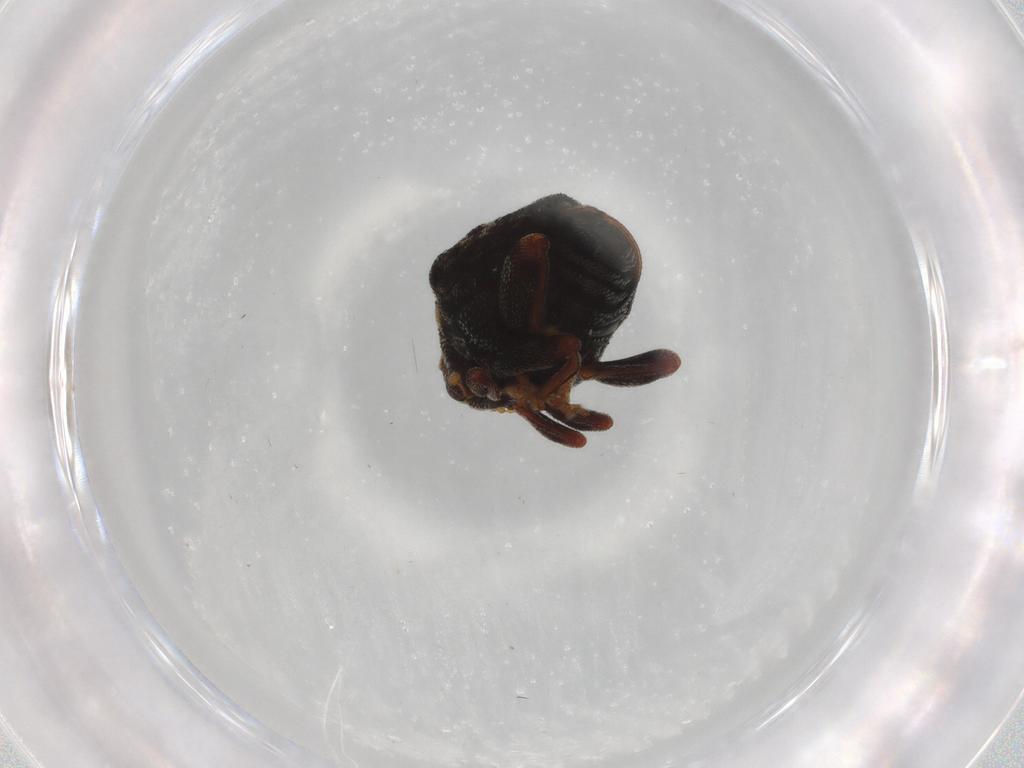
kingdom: Animalia
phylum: Arthropoda
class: Insecta
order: Coleoptera
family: Curculionidae
